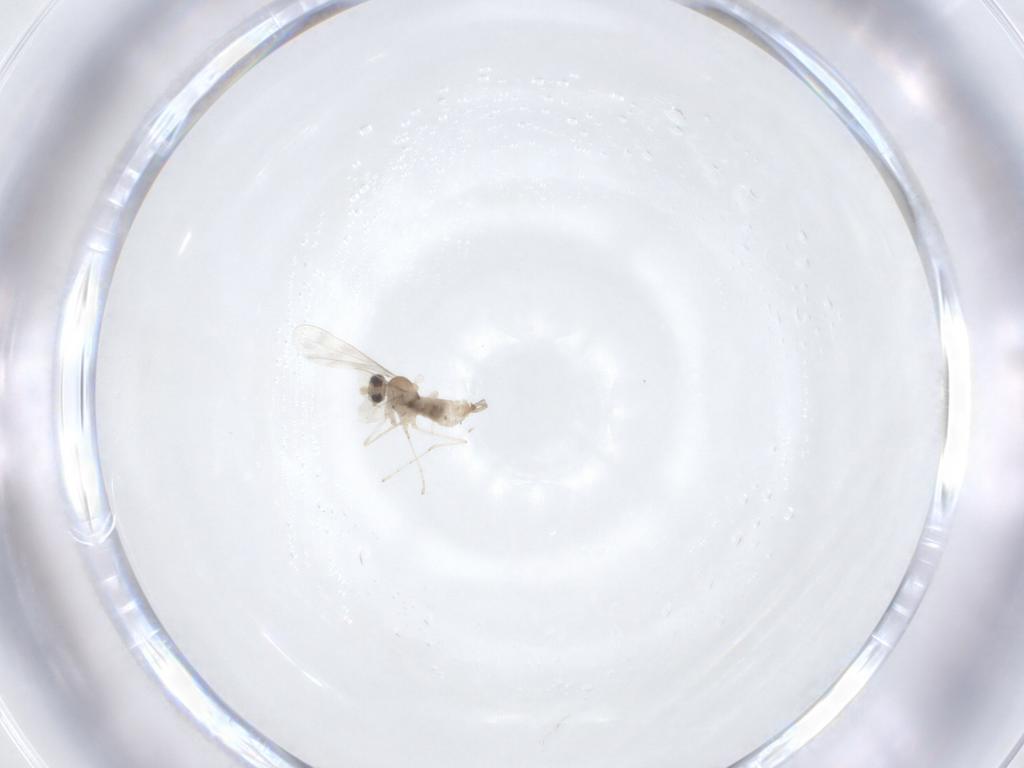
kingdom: Animalia
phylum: Arthropoda
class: Insecta
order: Diptera
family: Cecidomyiidae
